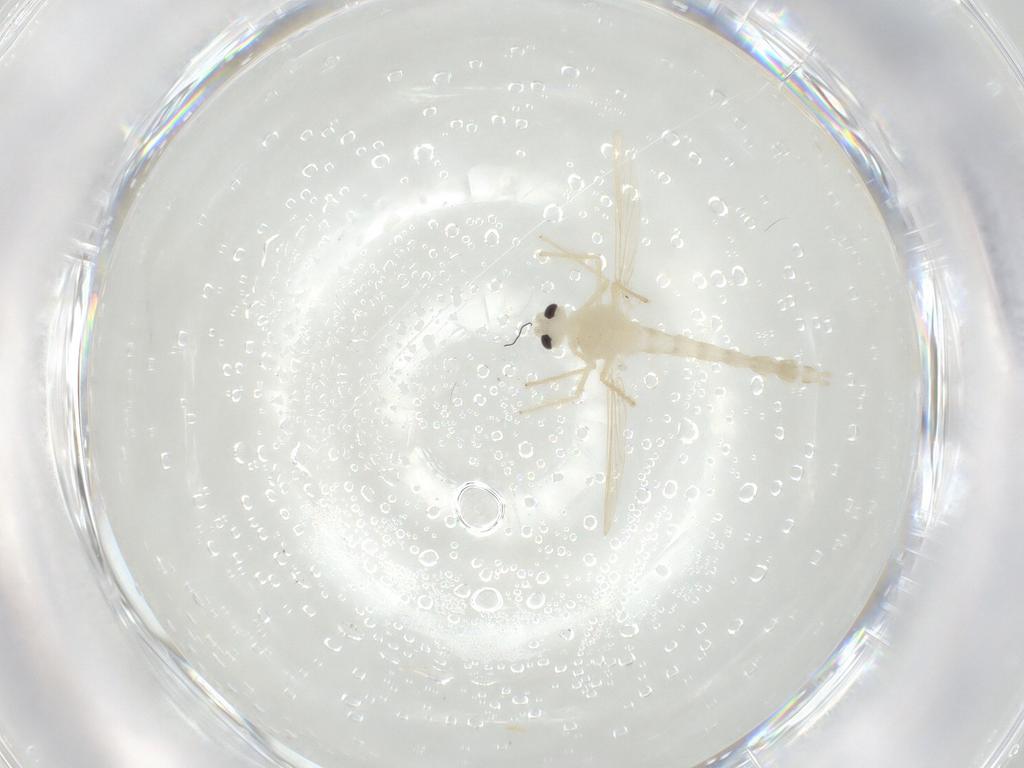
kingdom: Animalia
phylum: Arthropoda
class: Insecta
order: Diptera
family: Chironomidae
